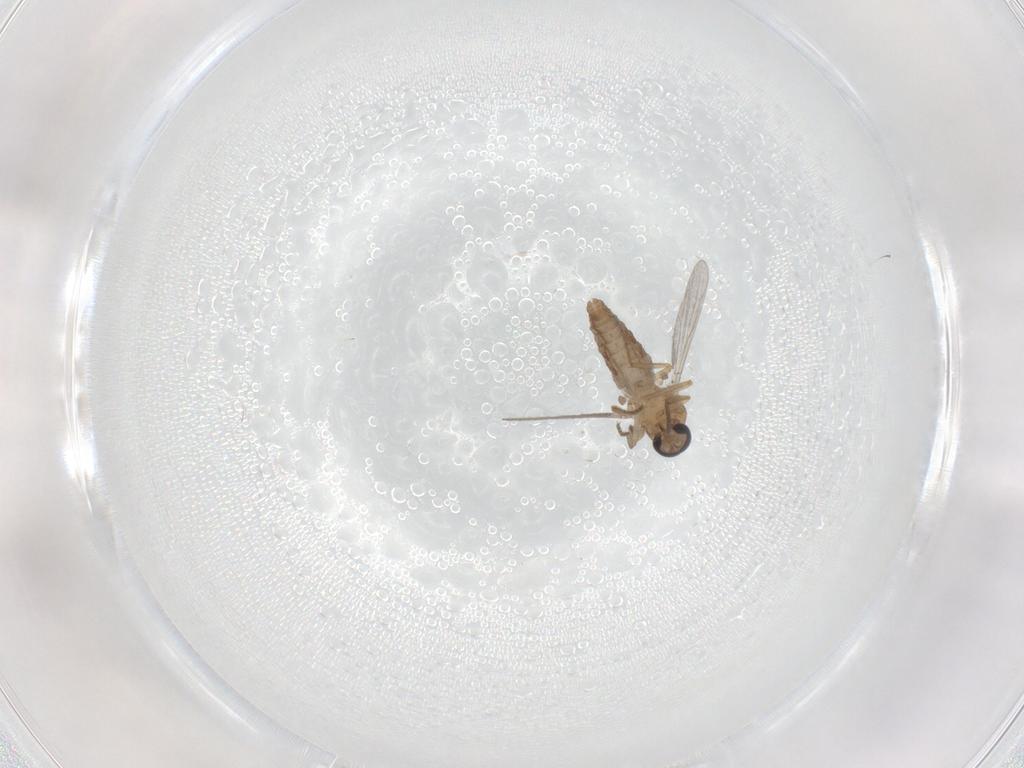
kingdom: Animalia
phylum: Arthropoda
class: Insecta
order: Diptera
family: Ceratopogonidae
